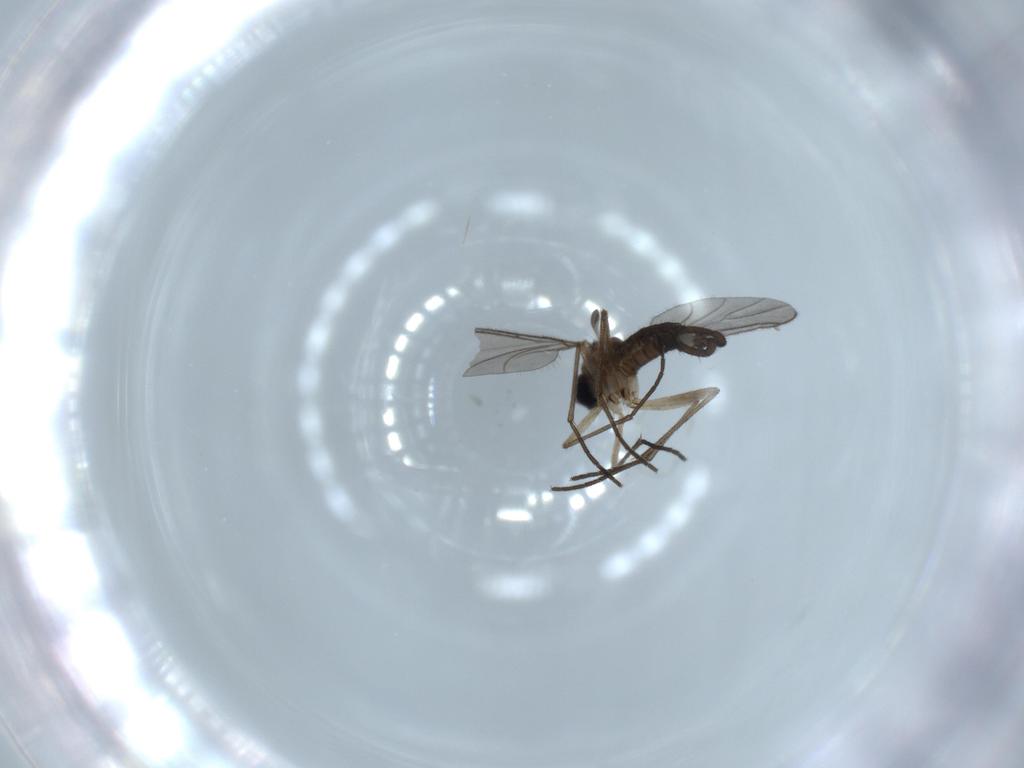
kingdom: Animalia
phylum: Arthropoda
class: Insecta
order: Diptera
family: Sciaridae
